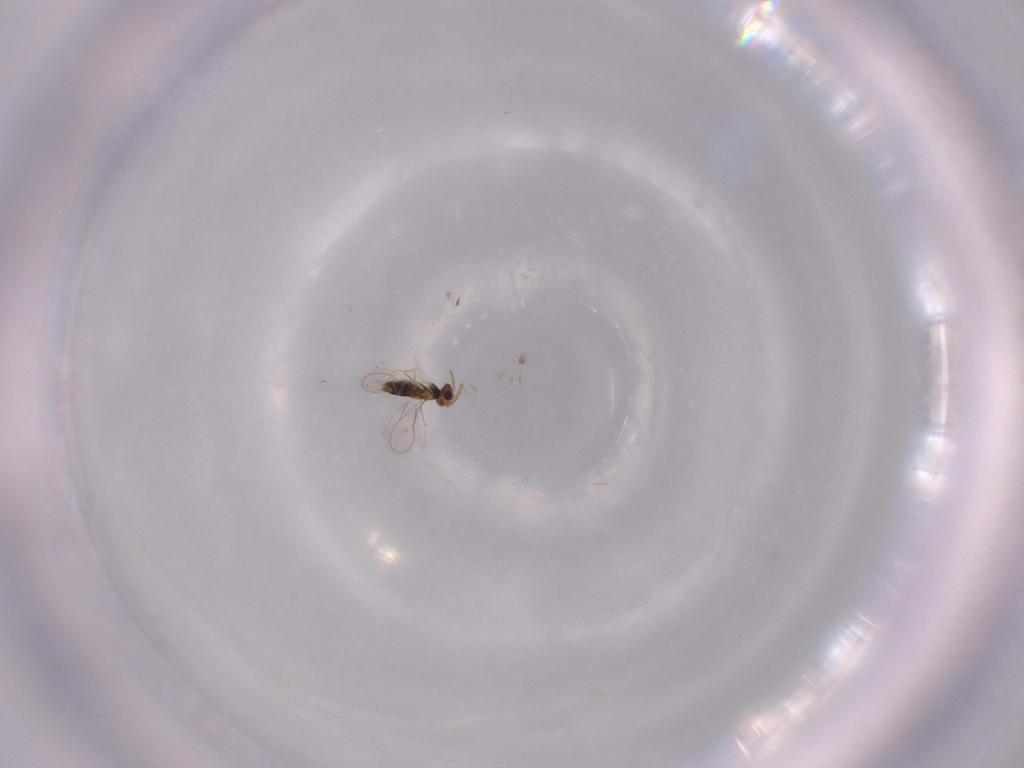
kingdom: Animalia
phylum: Arthropoda
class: Insecta
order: Hymenoptera
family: Aphelinidae
